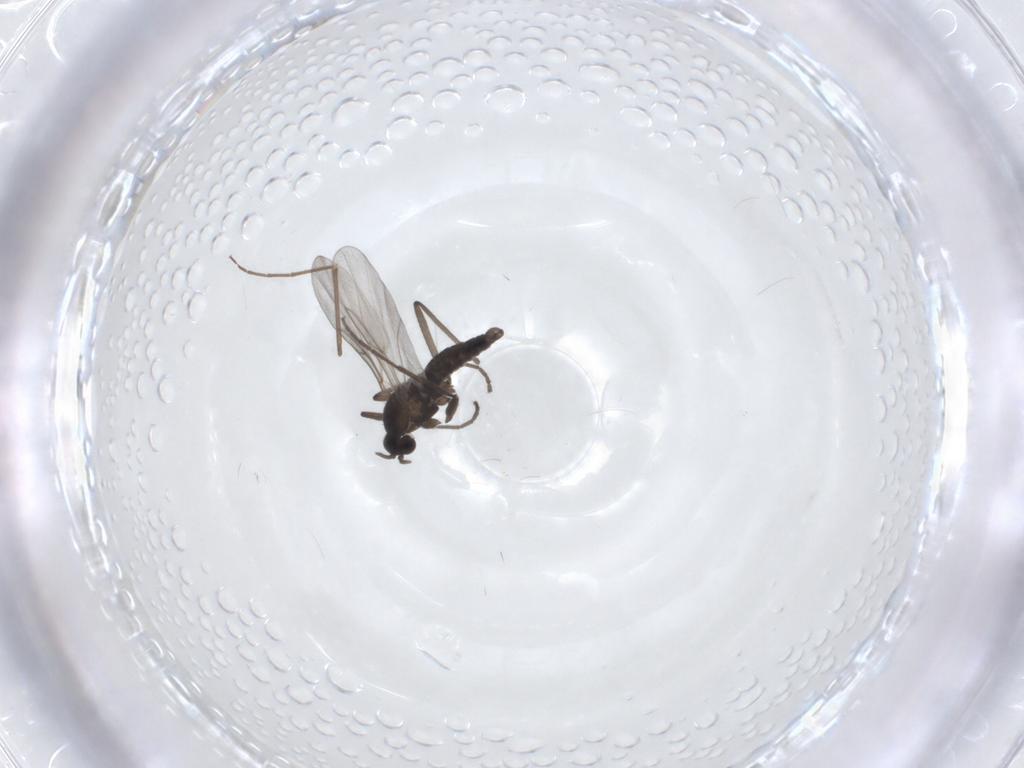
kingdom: Animalia
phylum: Arthropoda
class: Insecta
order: Diptera
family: Chironomidae
